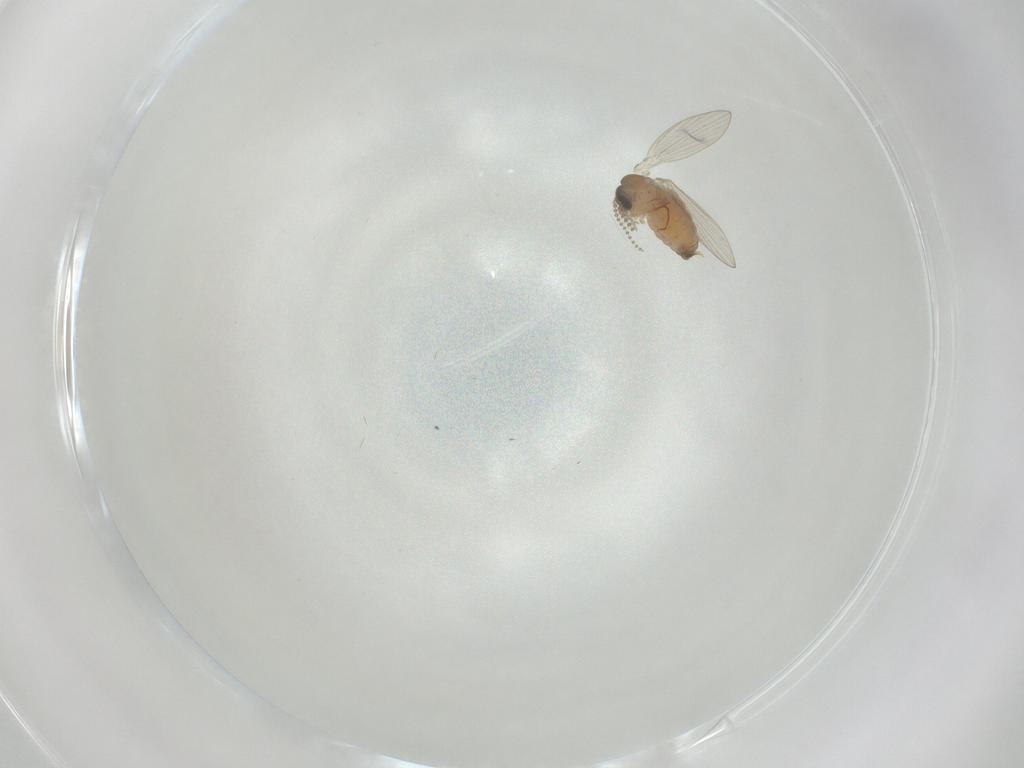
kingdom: Animalia
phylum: Arthropoda
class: Insecta
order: Diptera
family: Psychodidae
